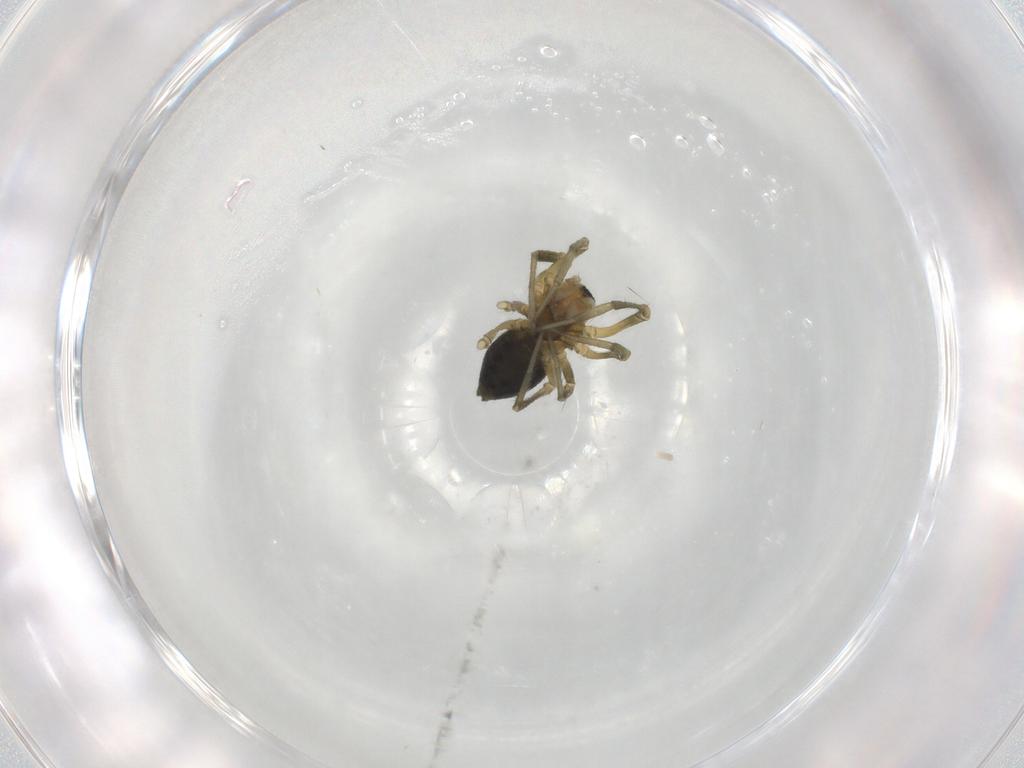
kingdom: Animalia
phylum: Arthropoda
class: Arachnida
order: Araneae
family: Linyphiidae
